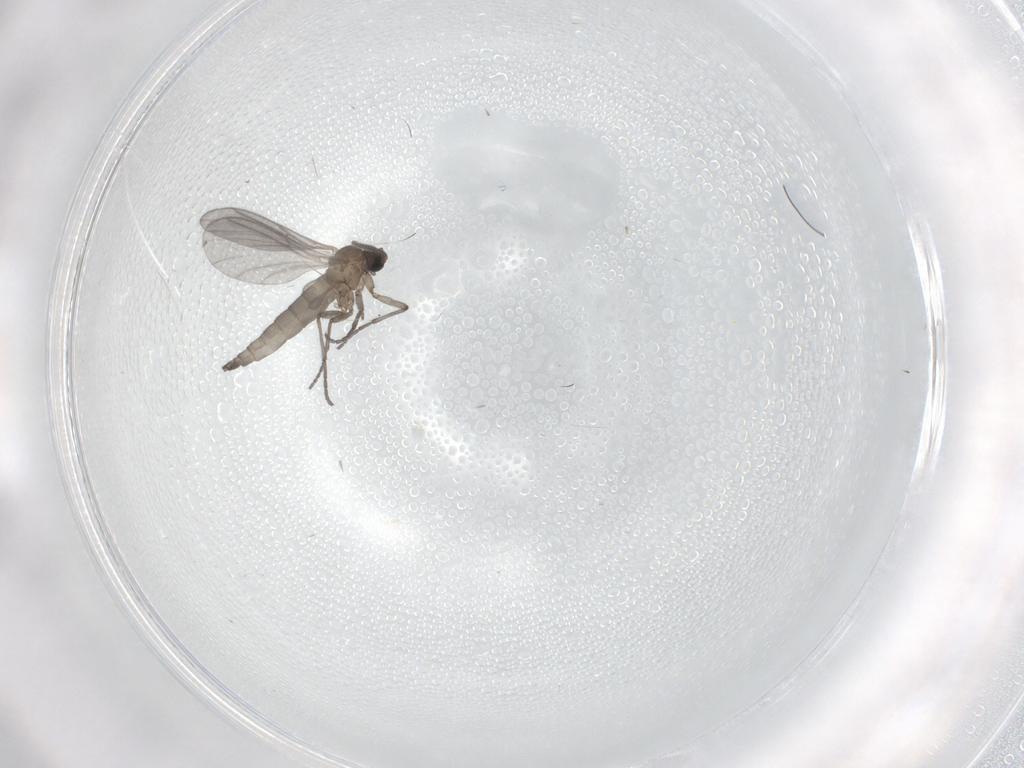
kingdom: Animalia
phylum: Arthropoda
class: Insecta
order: Diptera
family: Sciaridae
